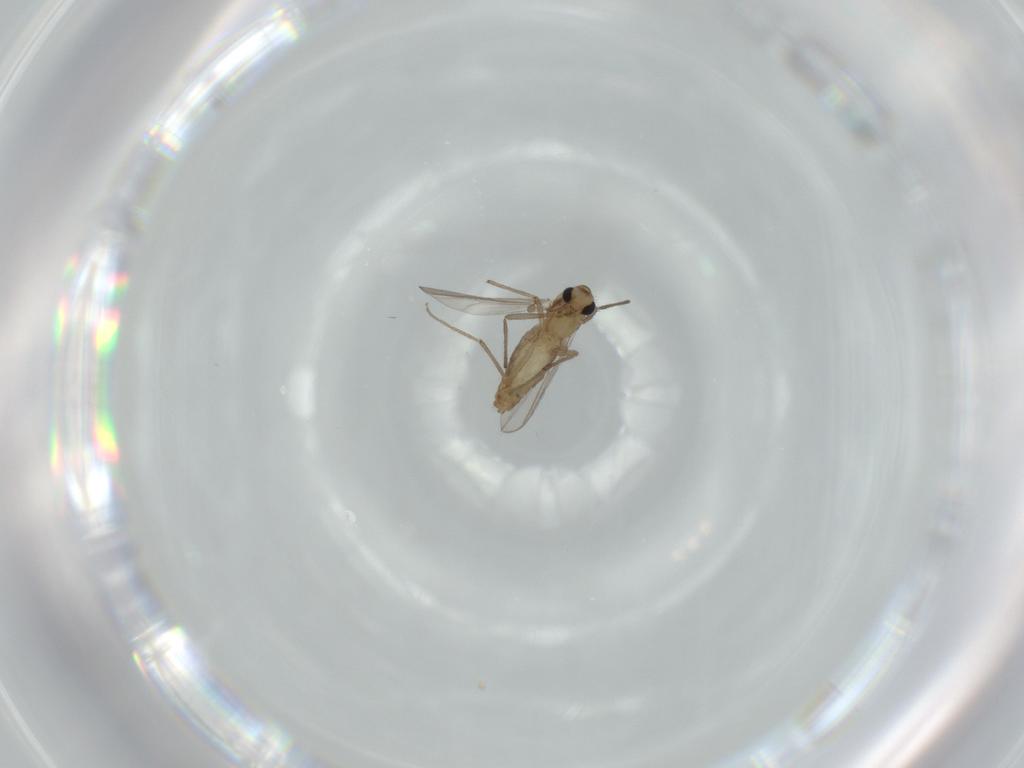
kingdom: Animalia
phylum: Arthropoda
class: Insecta
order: Diptera
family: Chironomidae
